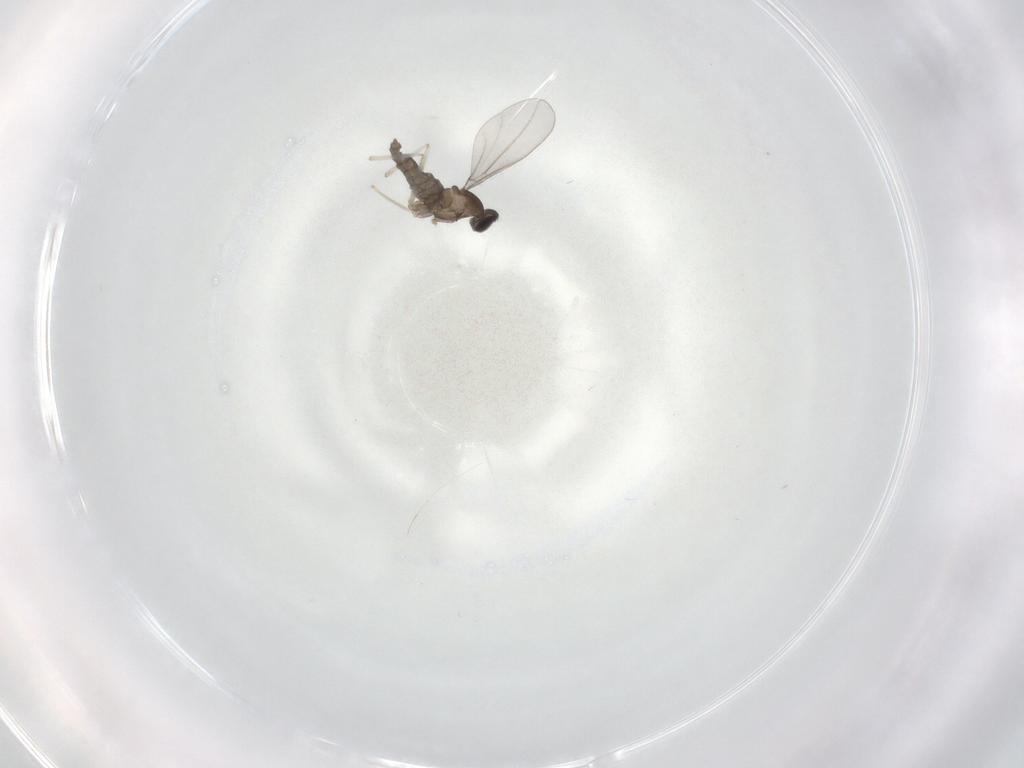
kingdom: Animalia
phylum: Arthropoda
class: Insecta
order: Diptera
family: Cecidomyiidae
